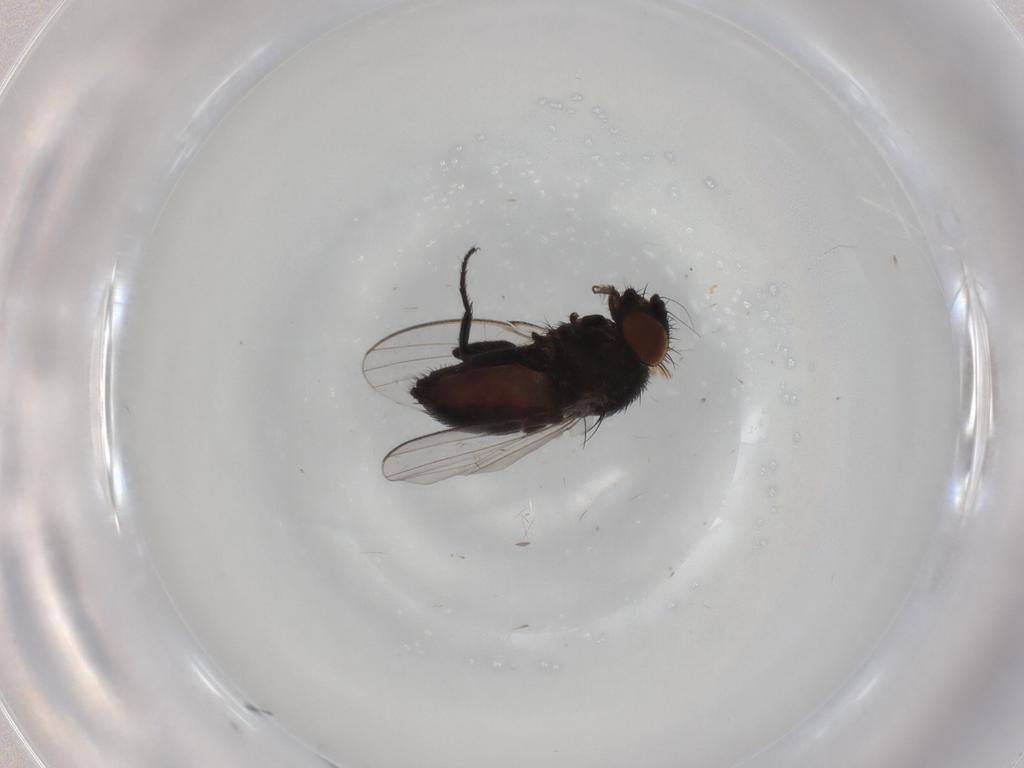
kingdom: Animalia
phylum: Arthropoda
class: Insecta
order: Diptera
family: Milichiidae
